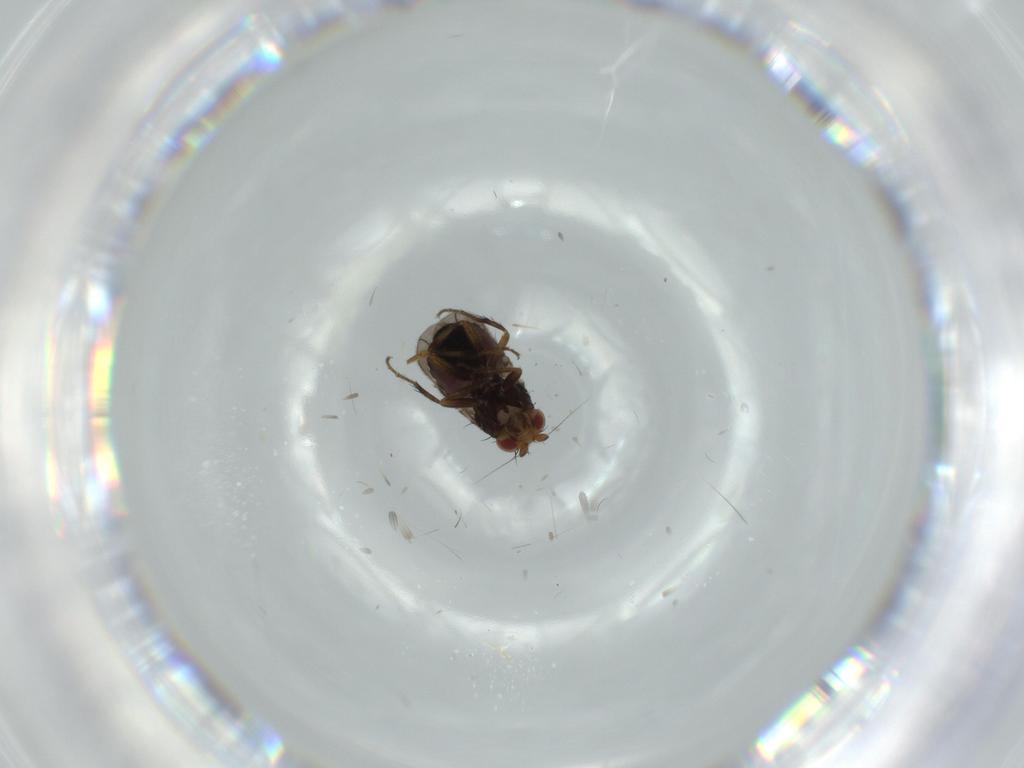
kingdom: Animalia
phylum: Arthropoda
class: Insecta
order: Diptera
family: Sphaeroceridae
